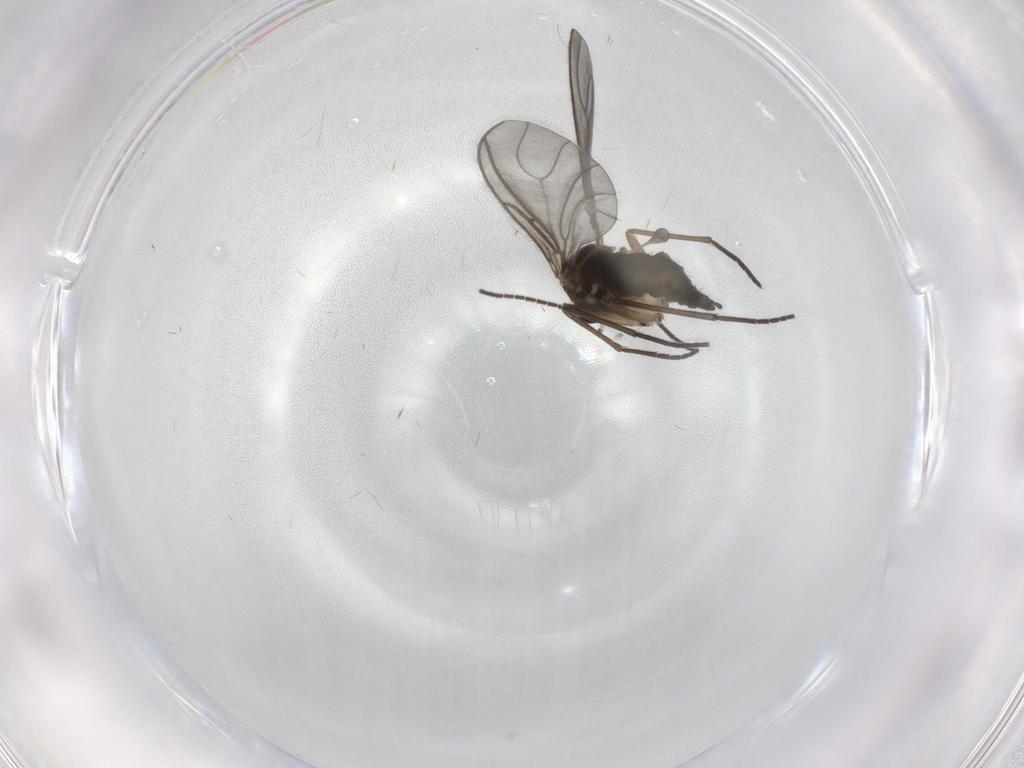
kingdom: Animalia
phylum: Arthropoda
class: Insecta
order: Diptera
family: Sciaridae
